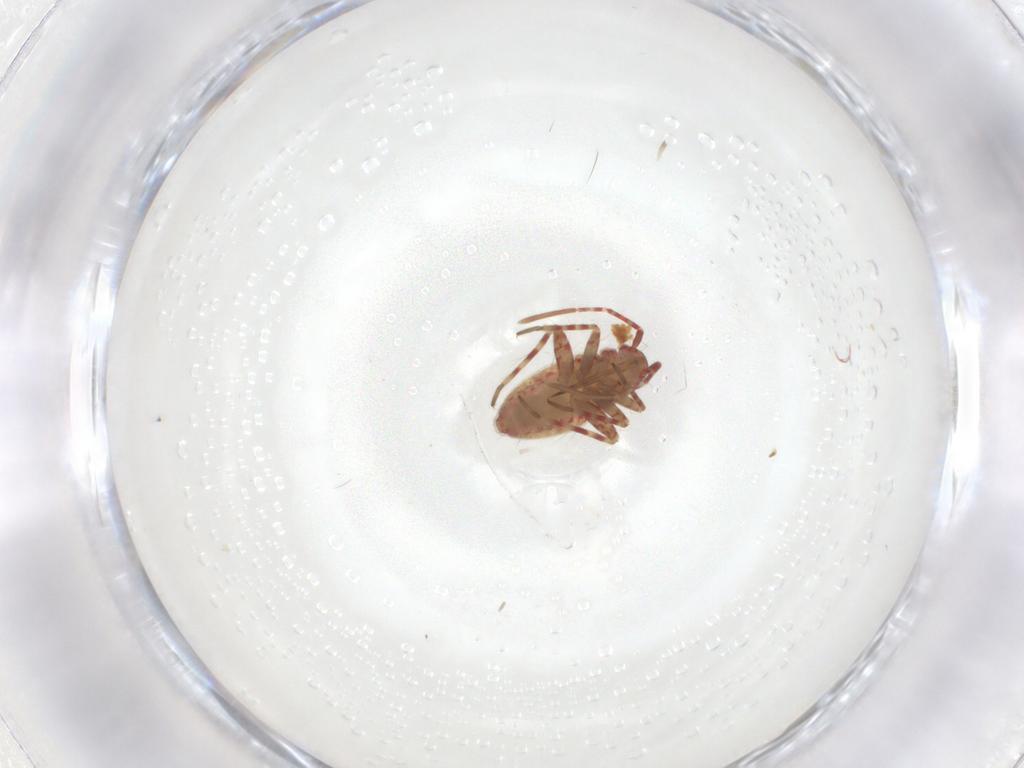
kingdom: Animalia
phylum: Arthropoda
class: Insecta
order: Hemiptera
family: Miridae
